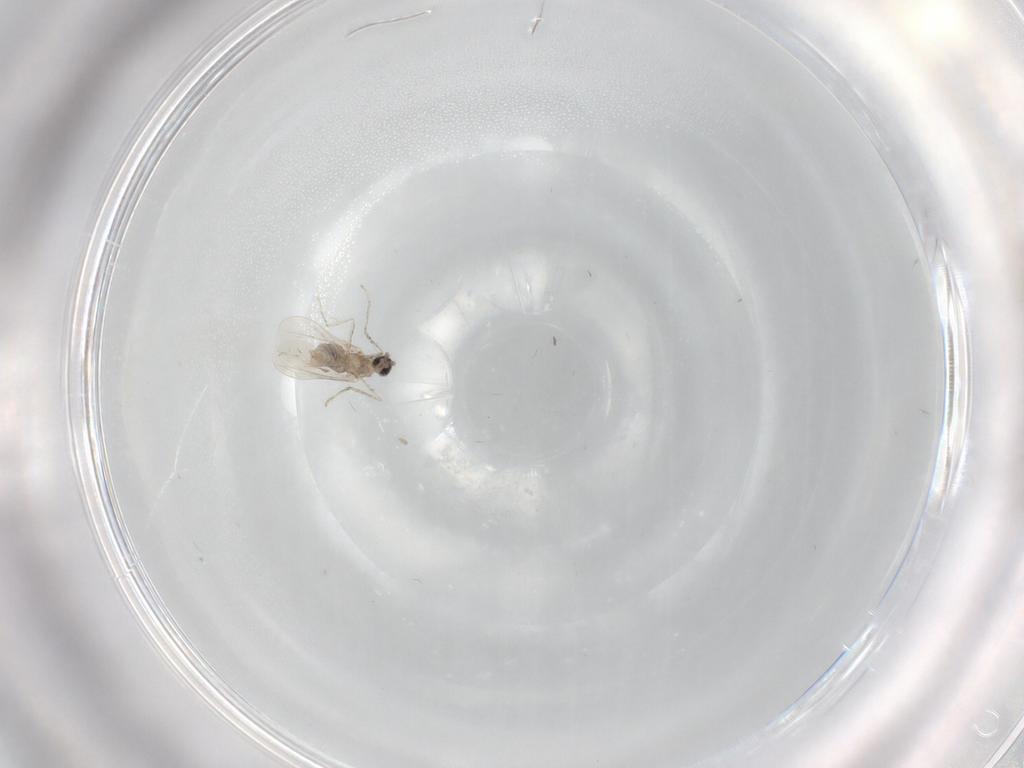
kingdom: Animalia
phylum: Arthropoda
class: Insecta
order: Diptera
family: Cecidomyiidae
